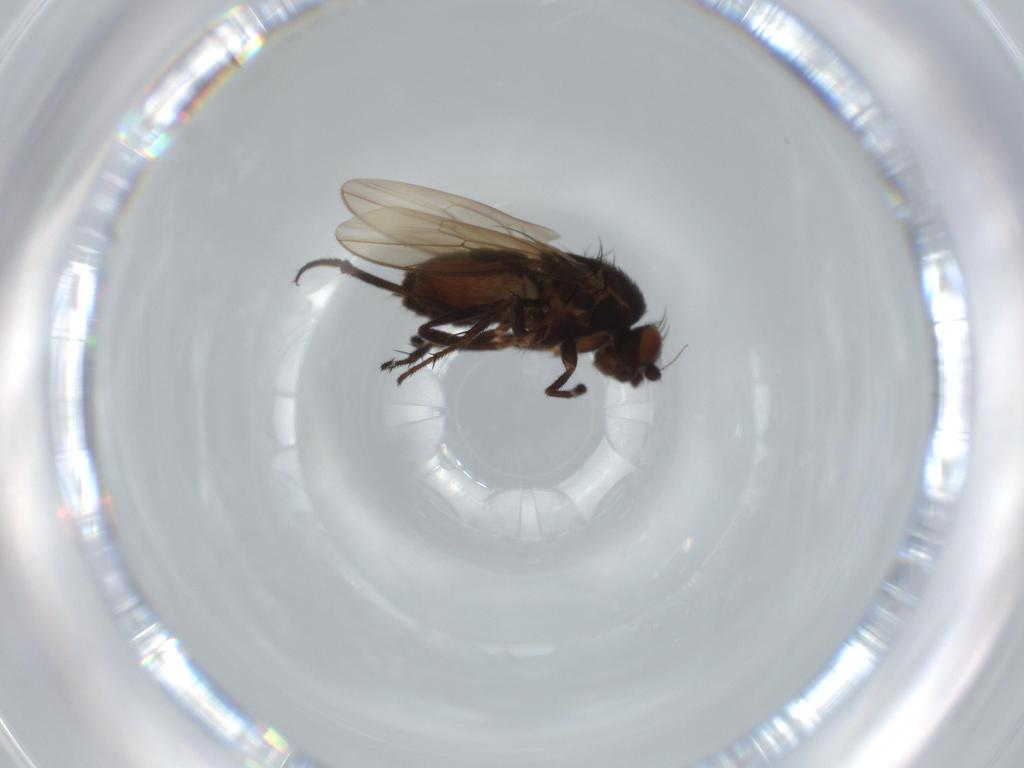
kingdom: Animalia
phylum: Arthropoda
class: Insecta
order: Diptera
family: Sphaeroceridae
